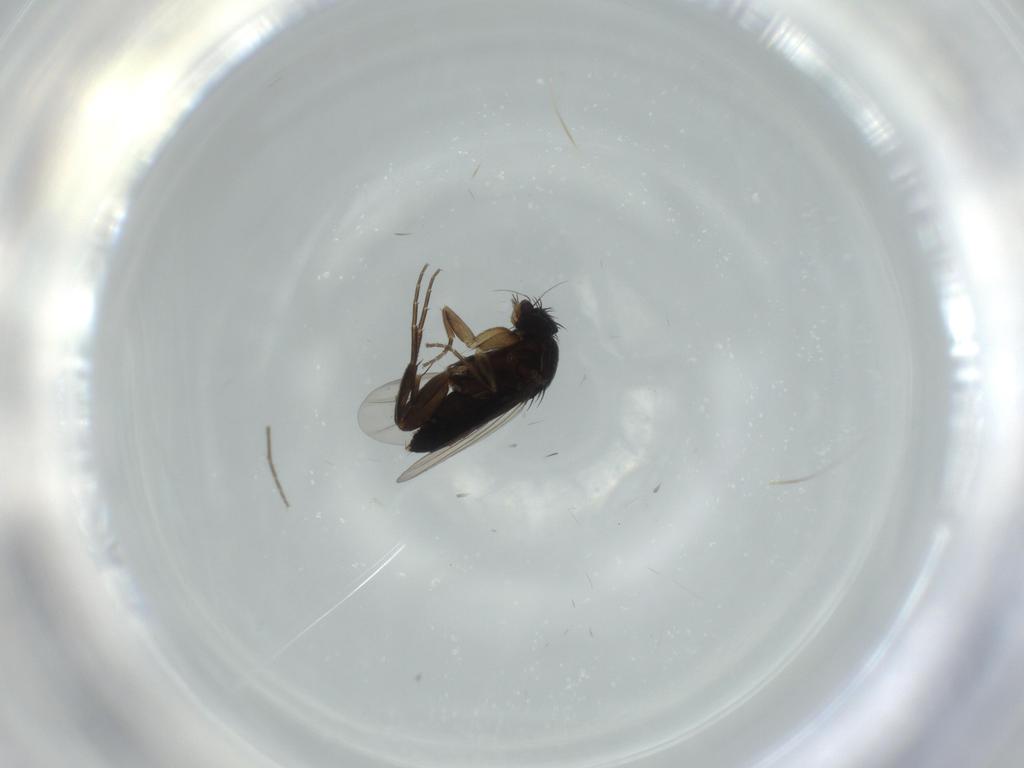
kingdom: Animalia
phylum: Arthropoda
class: Insecta
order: Diptera
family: Phoridae
